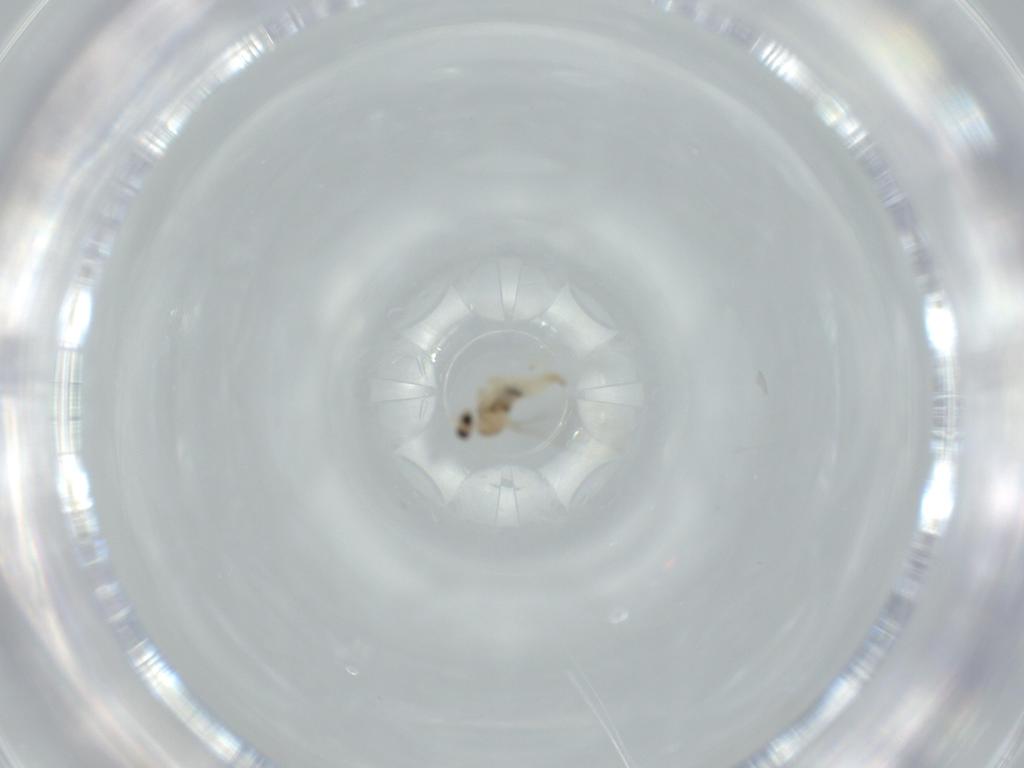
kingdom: Animalia
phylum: Arthropoda
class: Insecta
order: Diptera
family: Cecidomyiidae
